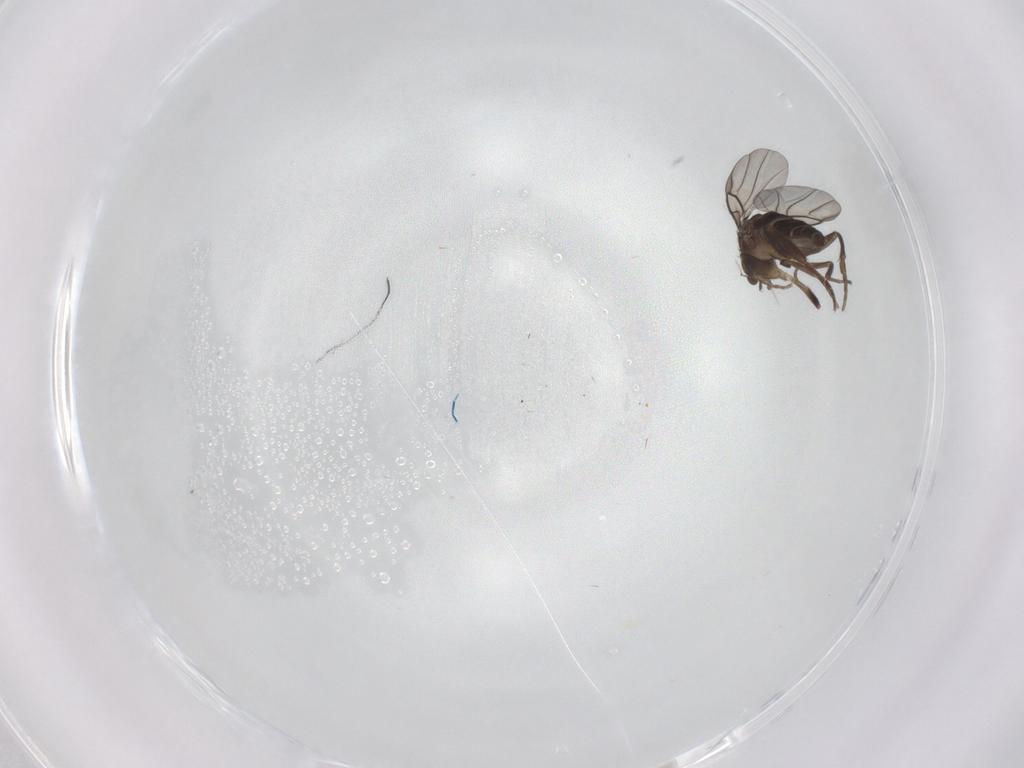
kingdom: Animalia
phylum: Arthropoda
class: Insecta
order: Diptera
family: Phoridae
